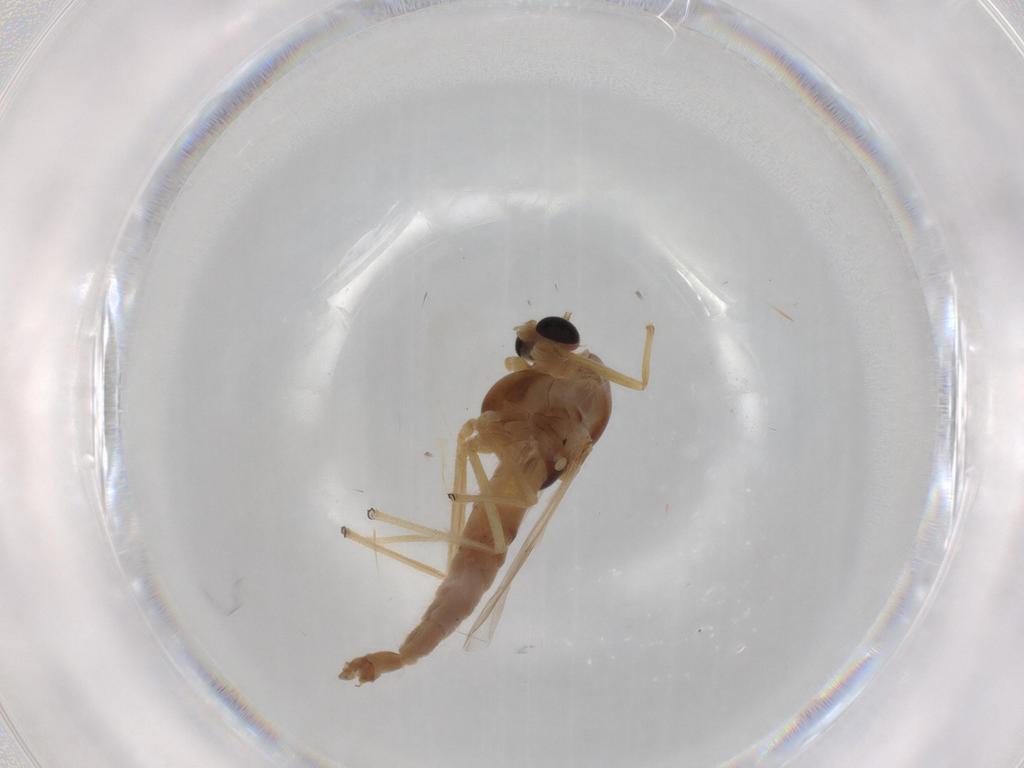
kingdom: Animalia
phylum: Arthropoda
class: Insecta
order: Diptera
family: Chironomidae
